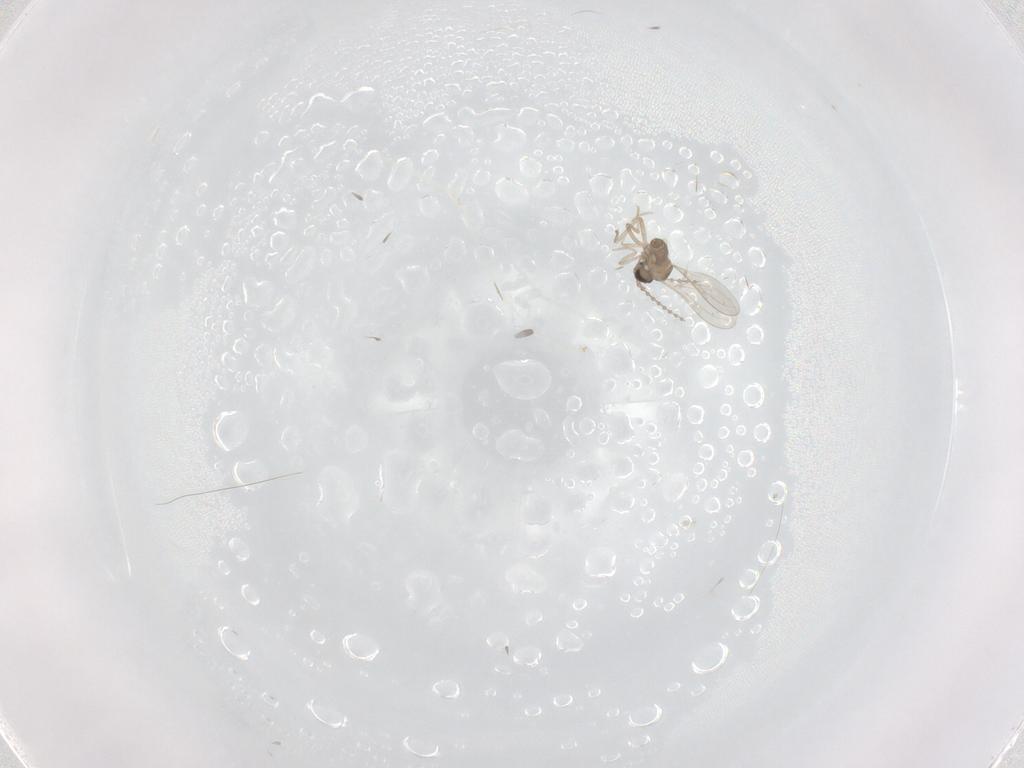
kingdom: Animalia
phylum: Arthropoda
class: Insecta
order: Diptera
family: Cecidomyiidae
